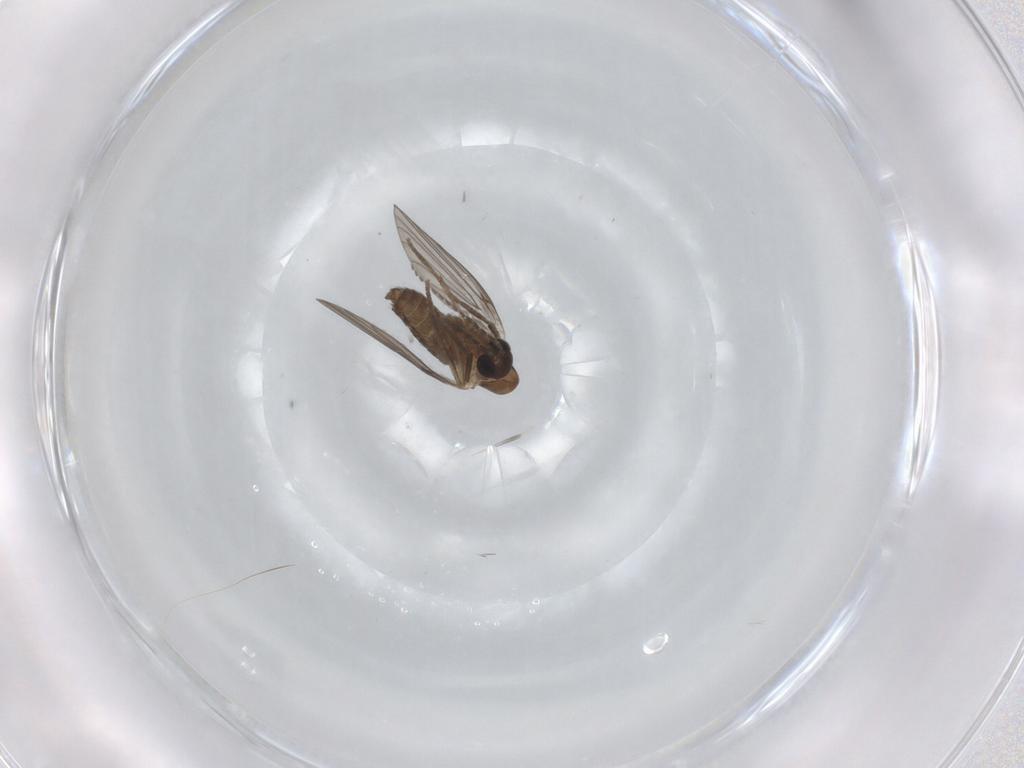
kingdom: Animalia
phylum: Arthropoda
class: Insecta
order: Diptera
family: Psychodidae
